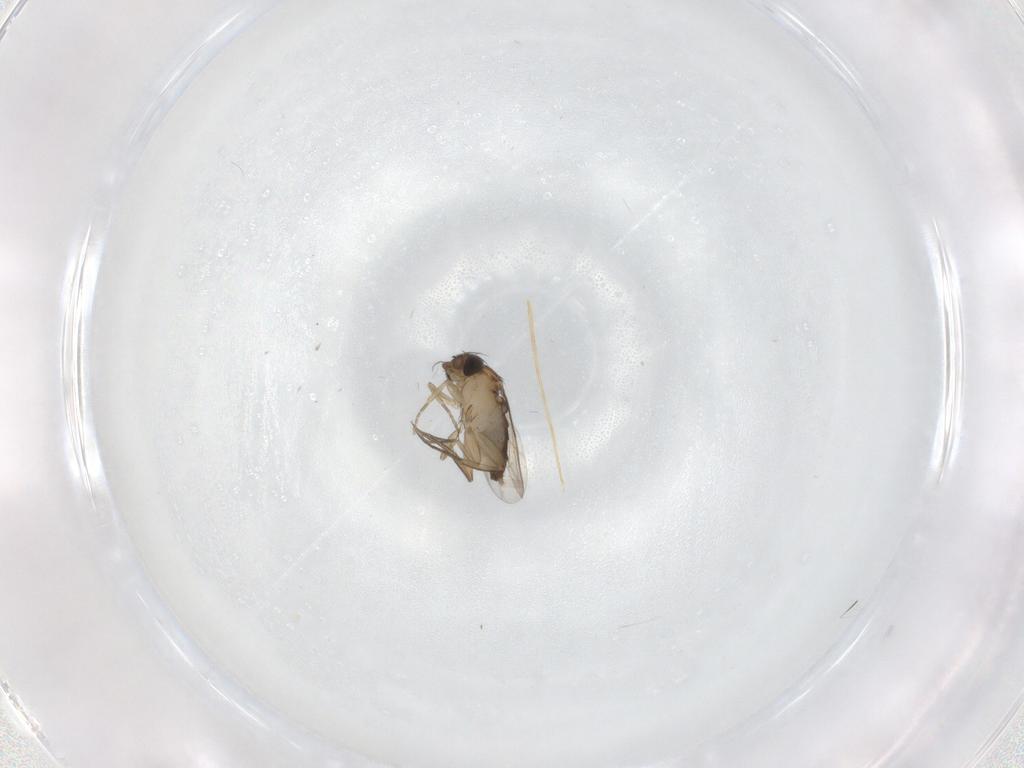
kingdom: Animalia
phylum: Arthropoda
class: Insecta
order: Diptera
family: Phoridae
